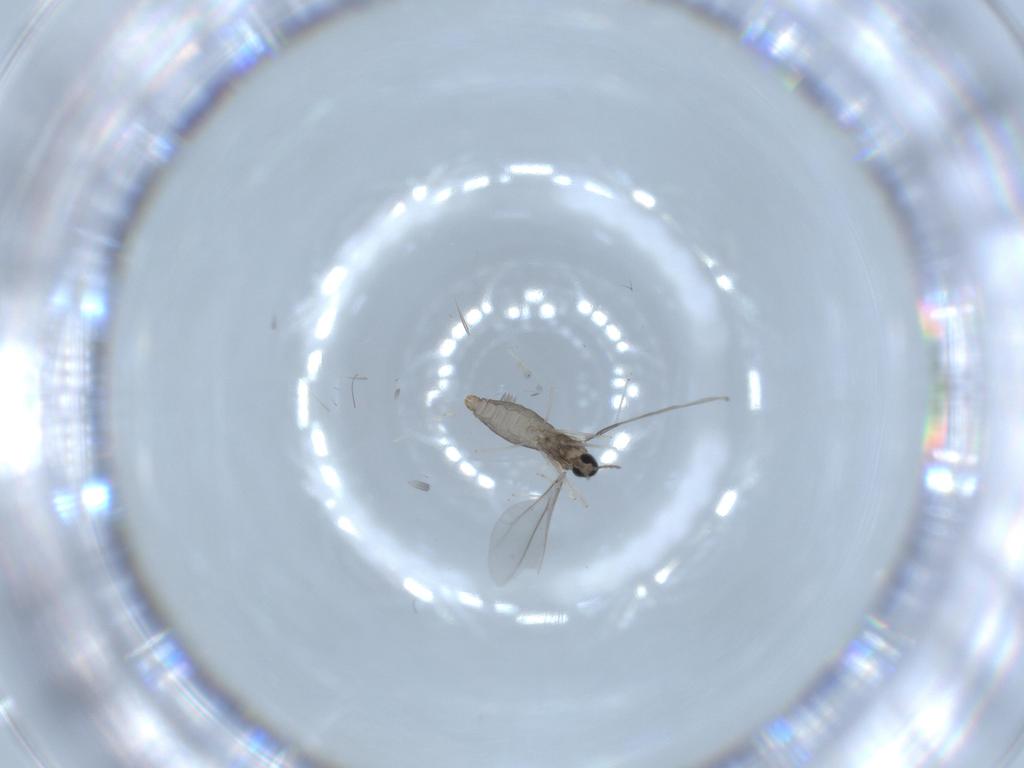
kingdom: Animalia
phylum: Arthropoda
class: Insecta
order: Diptera
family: Cecidomyiidae
